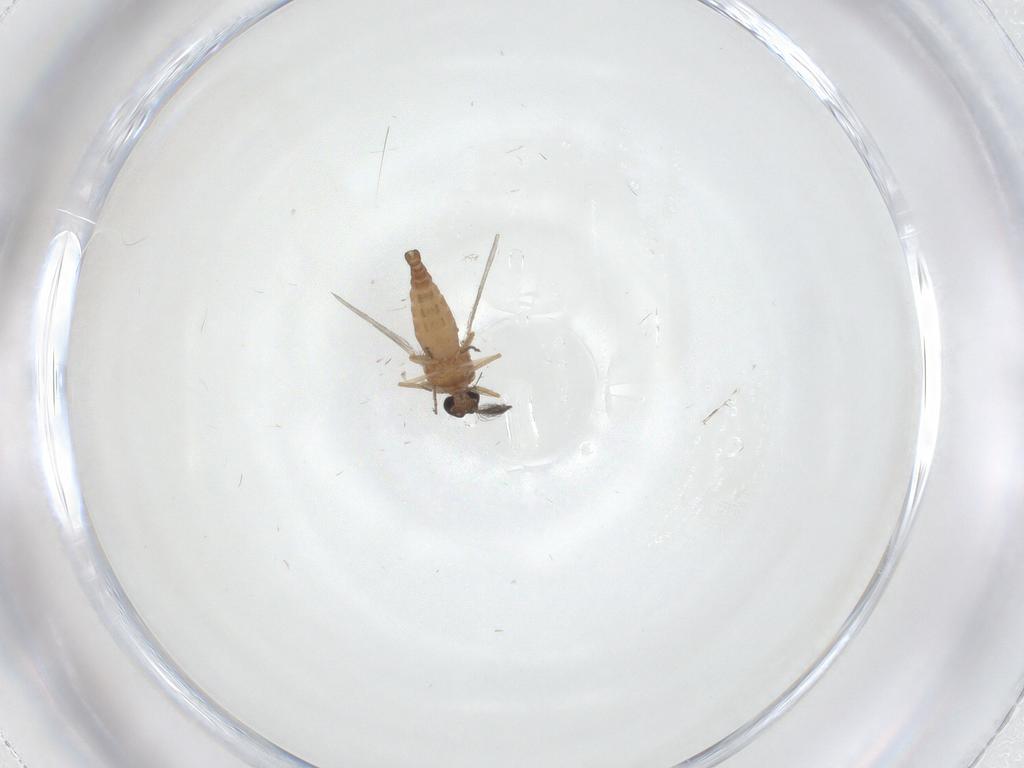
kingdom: Animalia
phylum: Arthropoda
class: Insecta
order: Diptera
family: Ceratopogonidae
